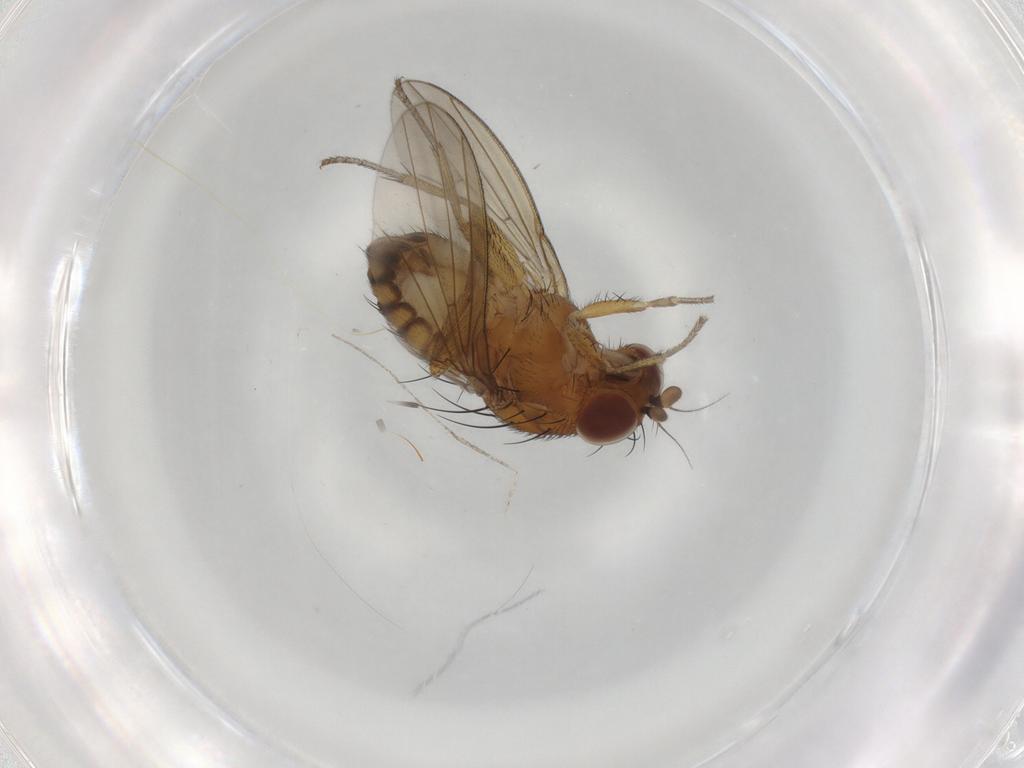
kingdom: Animalia
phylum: Arthropoda
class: Insecta
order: Diptera
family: Cecidomyiidae
